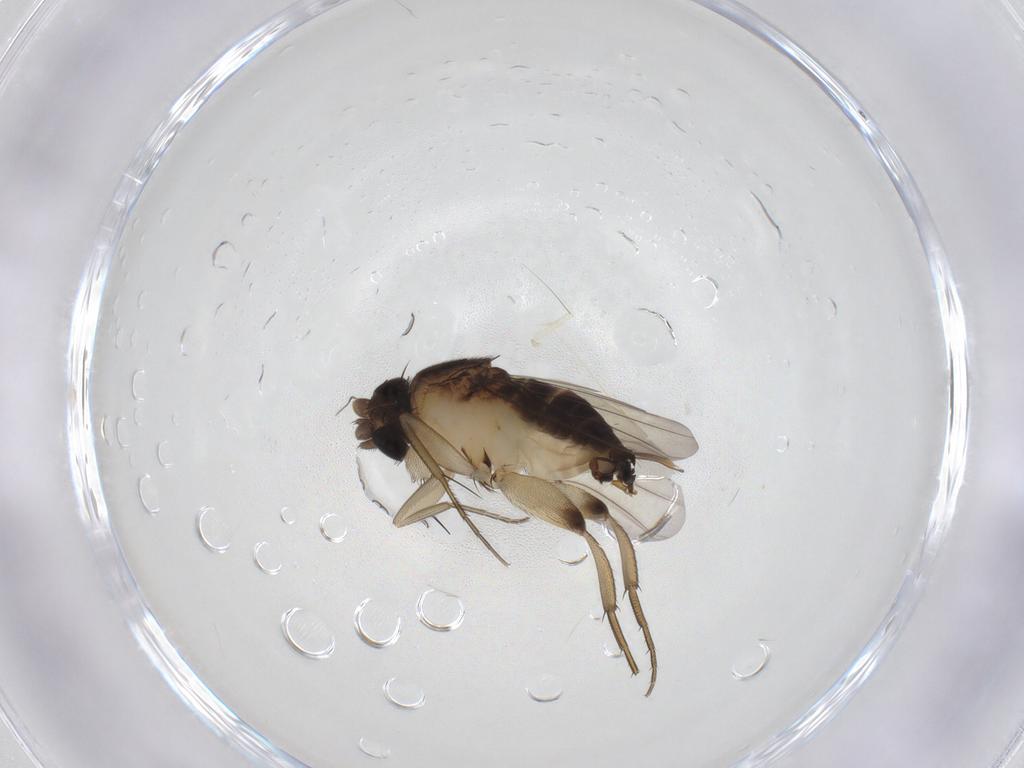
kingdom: Animalia
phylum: Arthropoda
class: Insecta
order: Diptera
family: Phoridae
